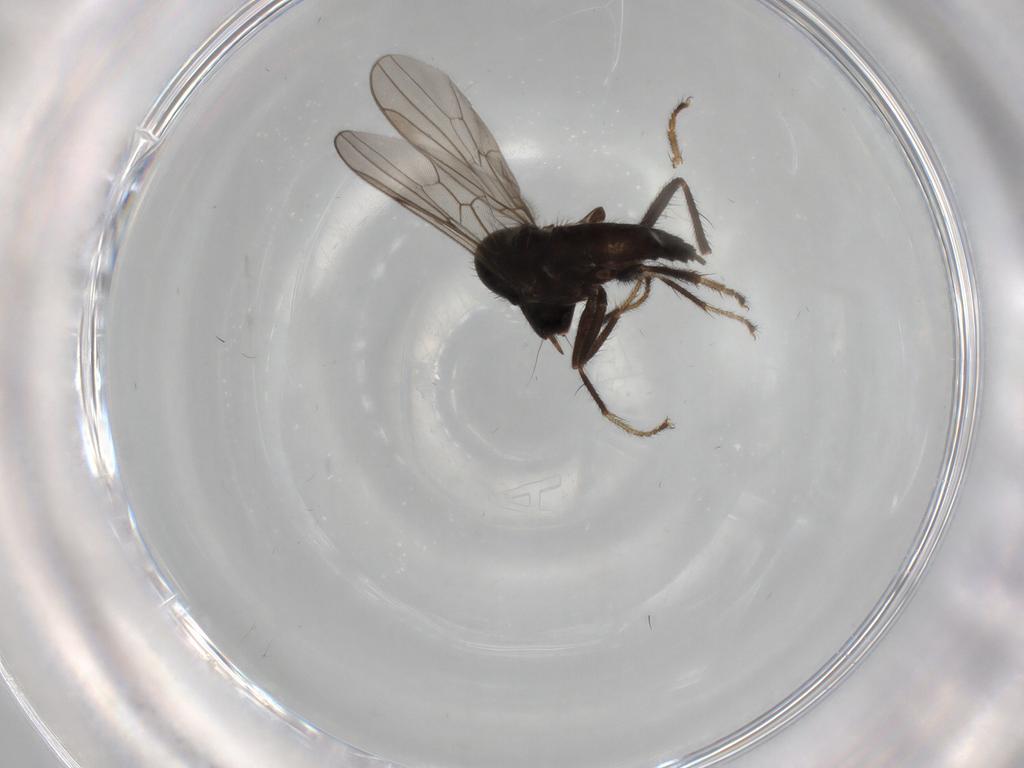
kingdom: Animalia
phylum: Arthropoda
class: Insecta
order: Diptera
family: Hybotidae
